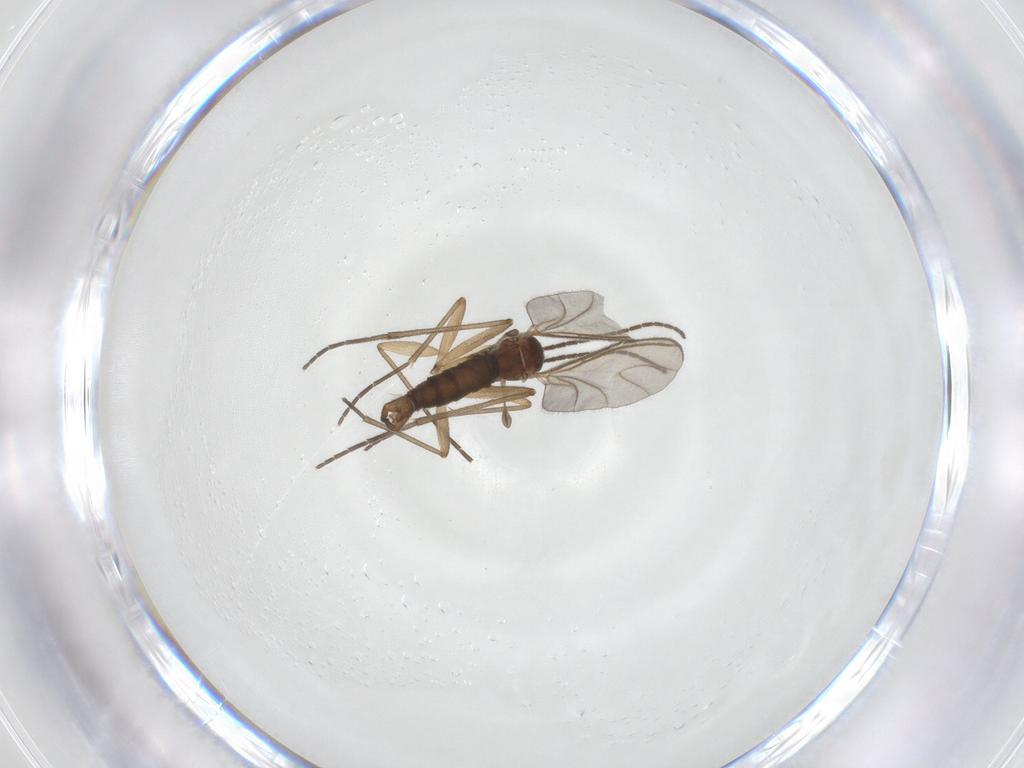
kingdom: Animalia
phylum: Arthropoda
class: Insecta
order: Diptera
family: Sciaridae
